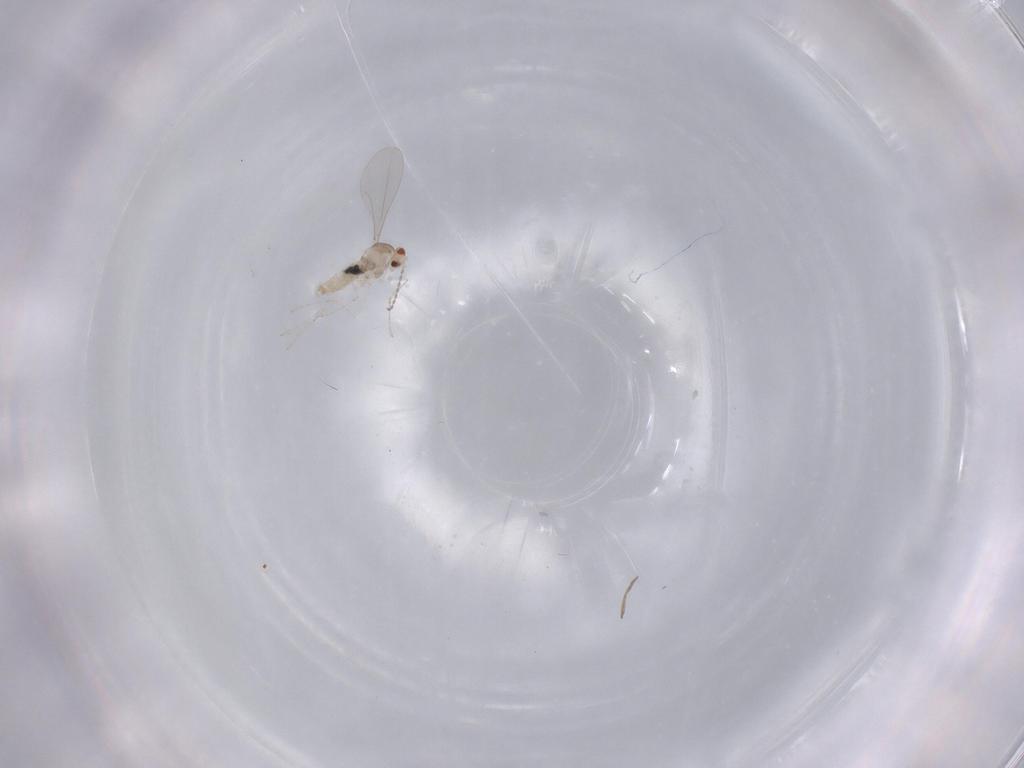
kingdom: Animalia
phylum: Arthropoda
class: Insecta
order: Diptera
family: Cecidomyiidae
